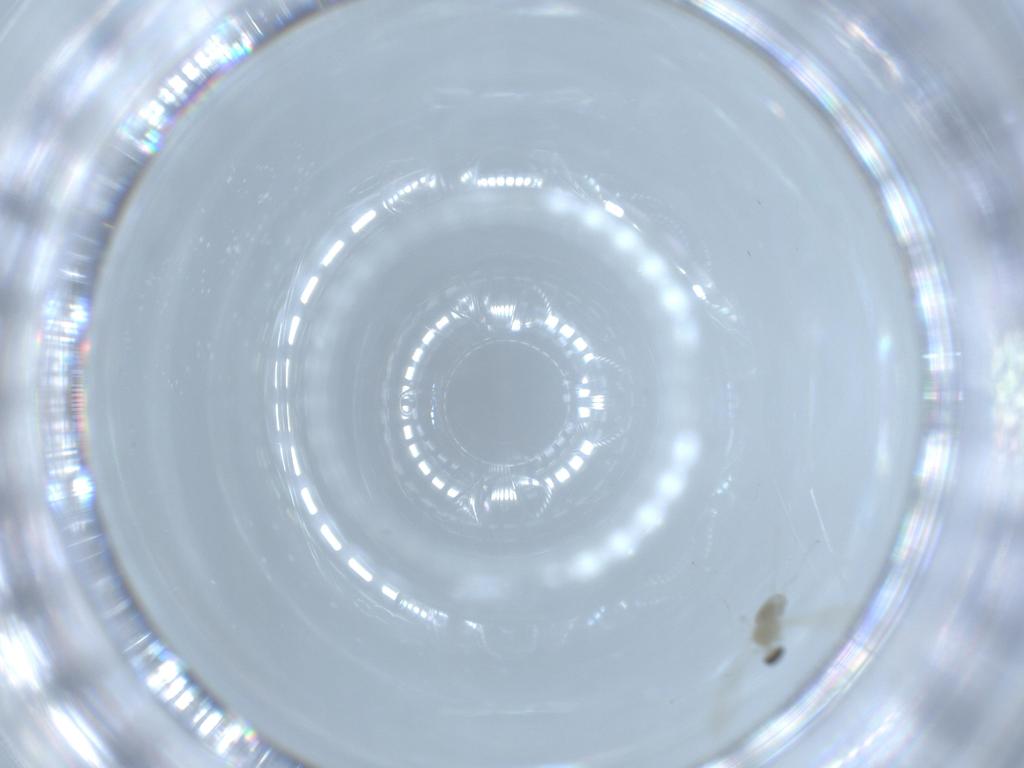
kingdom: Animalia
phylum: Arthropoda
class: Insecta
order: Diptera
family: Cecidomyiidae
